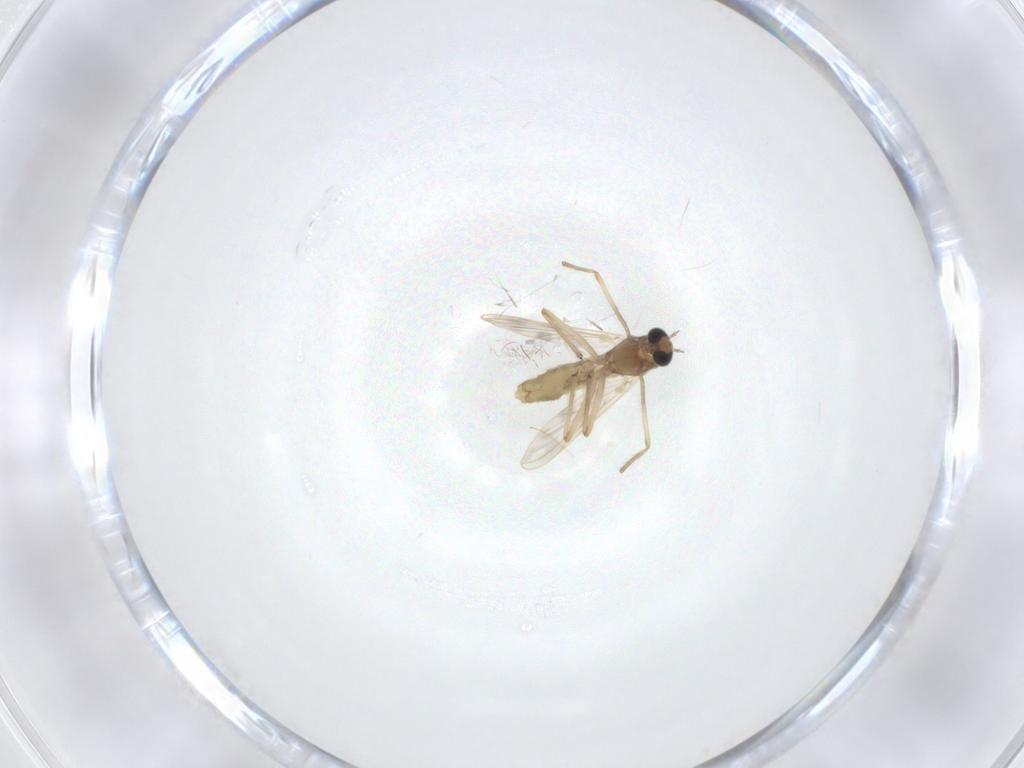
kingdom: Animalia
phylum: Arthropoda
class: Insecta
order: Diptera
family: Chironomidae
